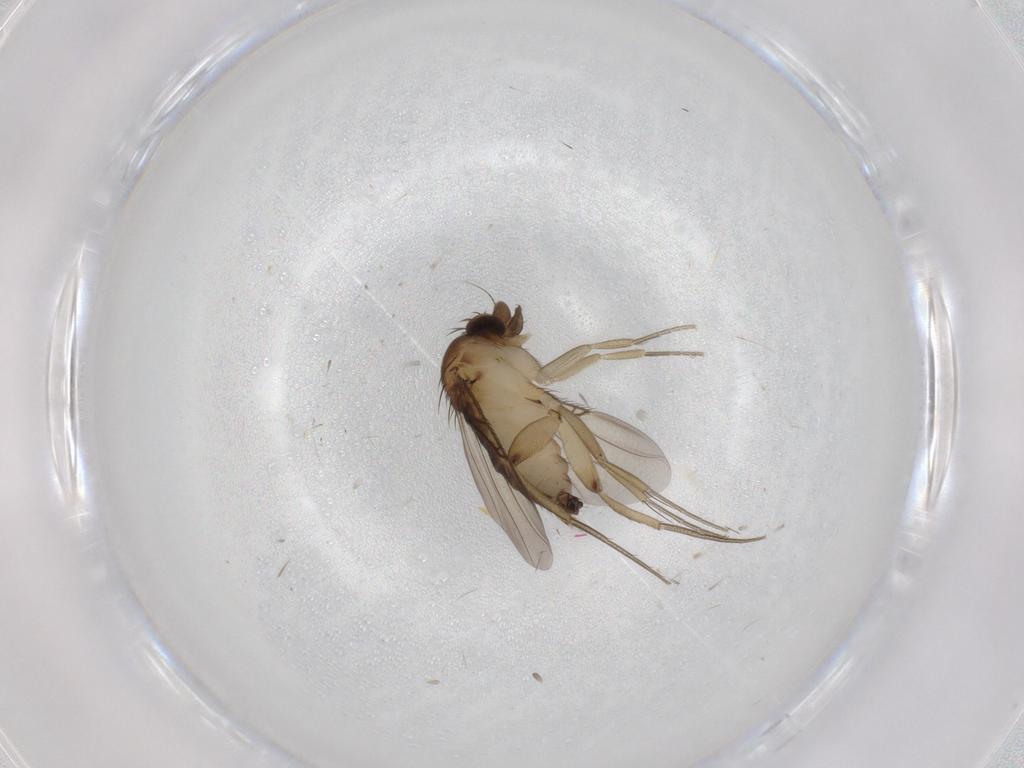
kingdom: Animalia
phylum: Arthropoda
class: Insecta
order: Diptera
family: Phoridae
